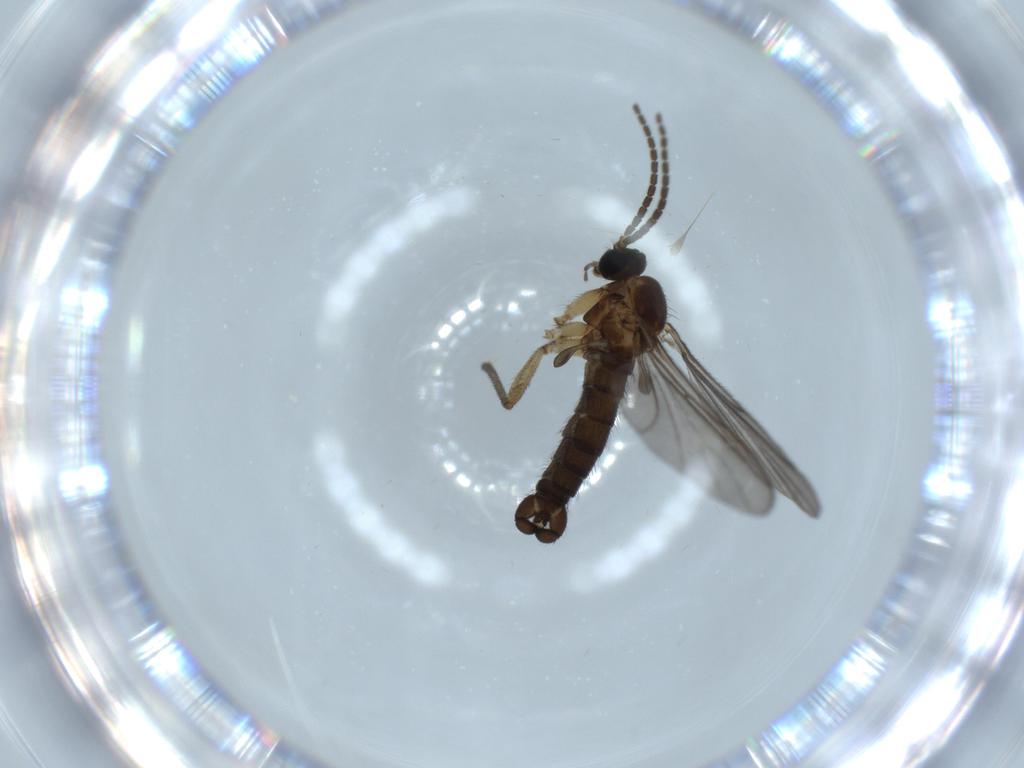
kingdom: Animalia
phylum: Arthropoda
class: Insecta
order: Diptera
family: Sciaridae
